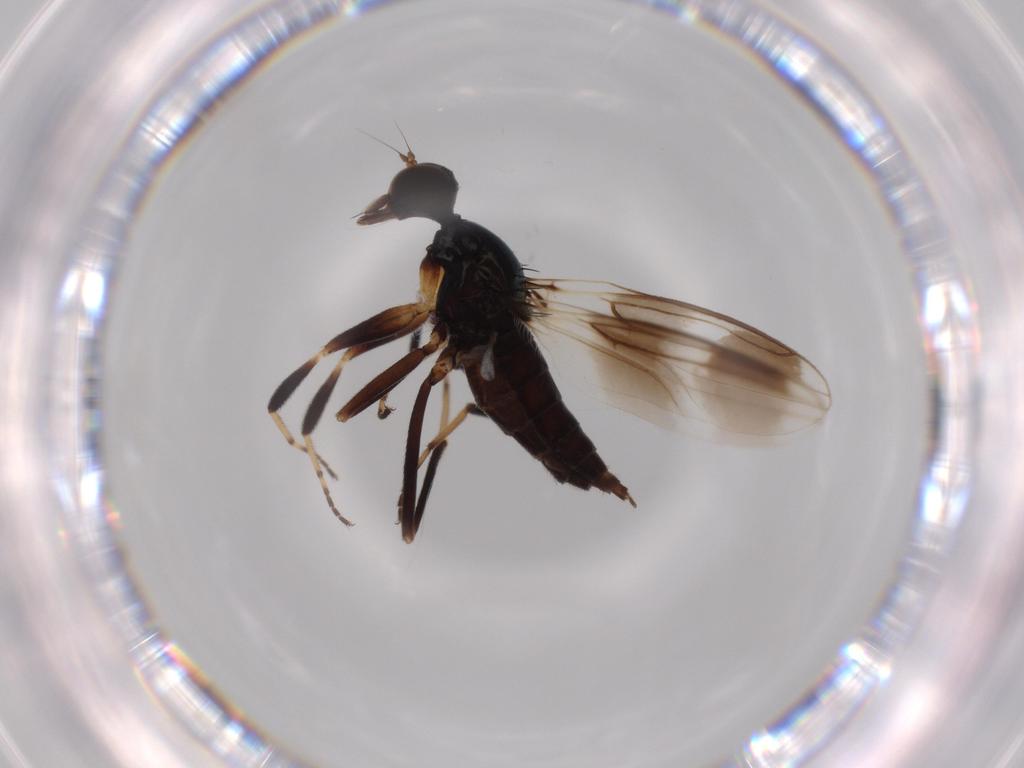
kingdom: Animalia
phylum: Arthropoda
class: Insecta
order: Diptera
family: Hybotidae
